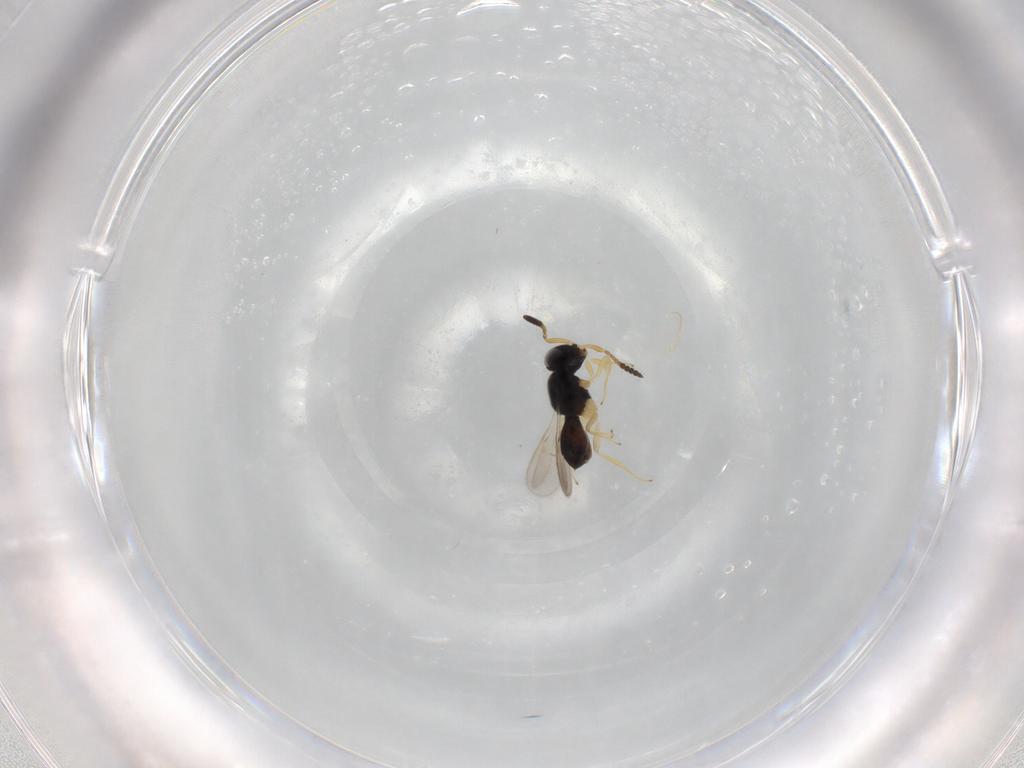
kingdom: Animalia
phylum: Arthropoda
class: Insecta
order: Hymenoptera
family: Scelionidae
